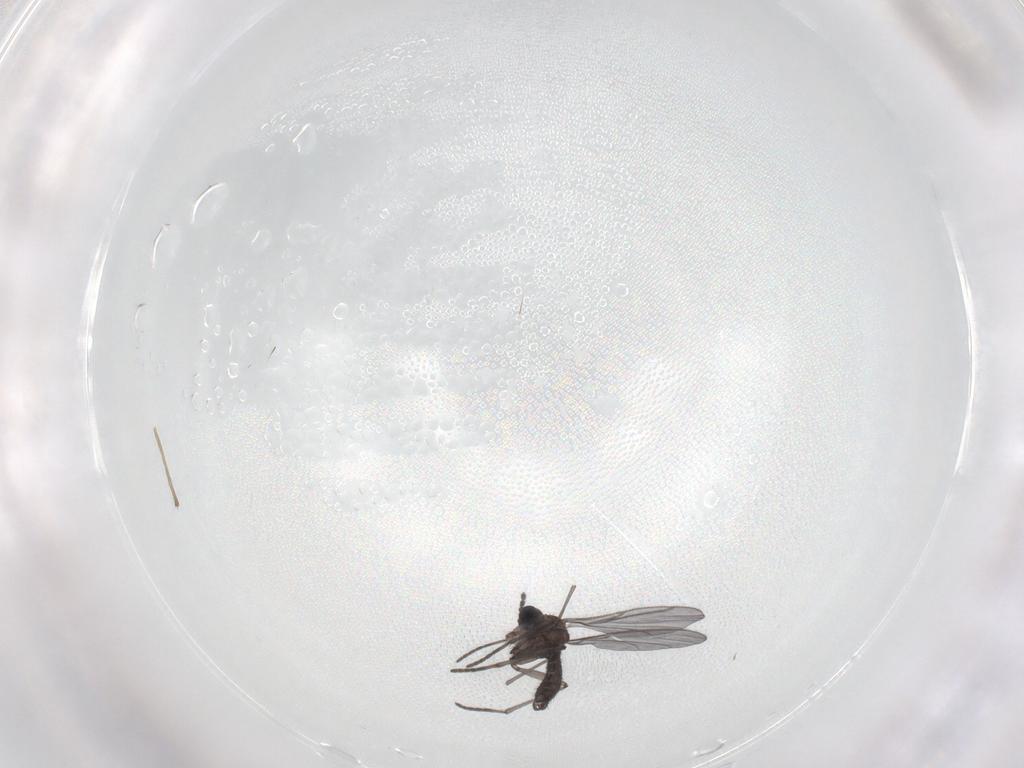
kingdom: Animalia
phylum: Arthropoda
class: Insecta
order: Diptera
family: Chironomidae
